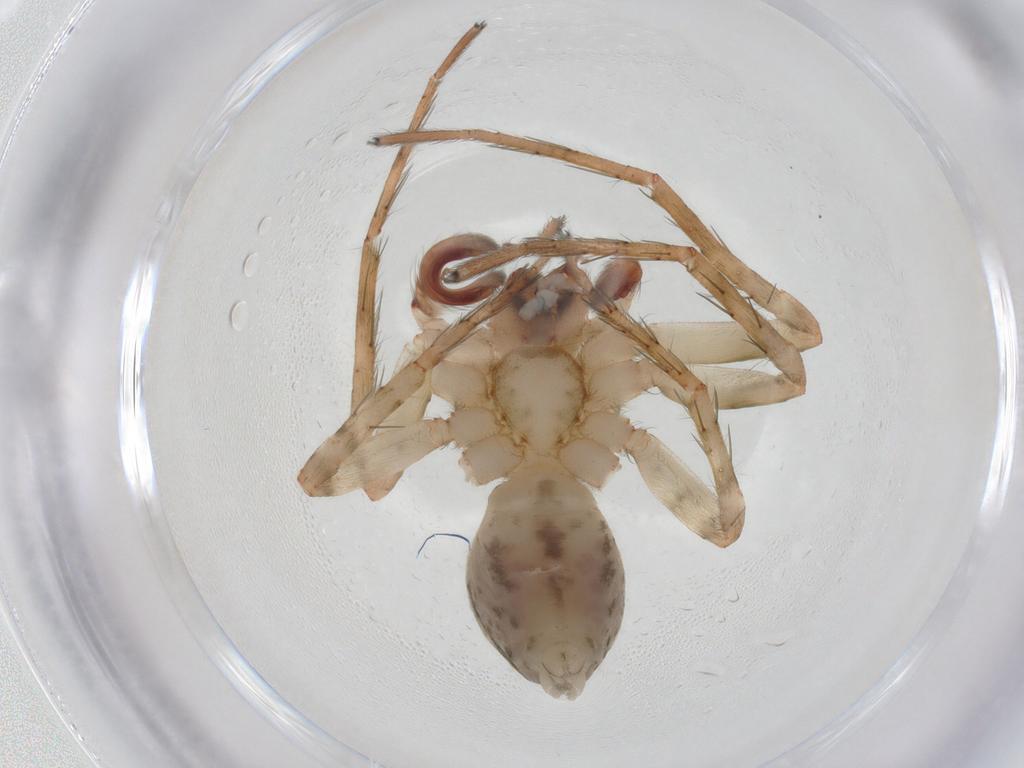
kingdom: Animalia
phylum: Arthropoda
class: Arachnida
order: Araneae
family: Anyphaenidae
